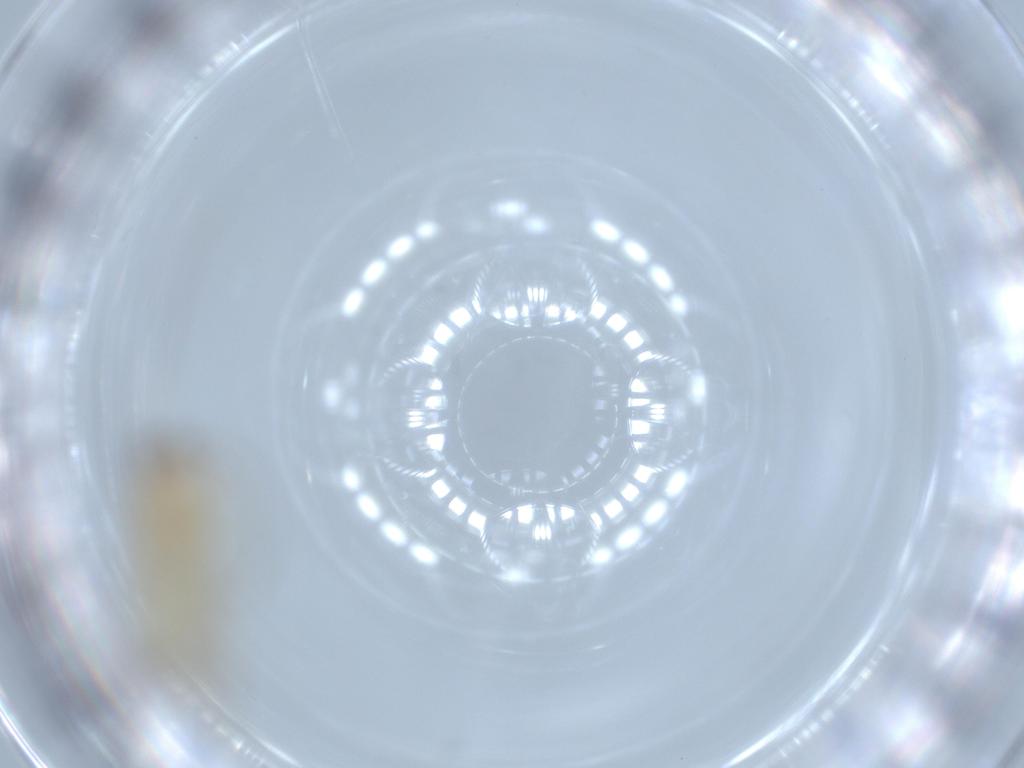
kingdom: Animalia
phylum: Arthropoda
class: Insecta
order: Psocodea
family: Caeciliusidae
